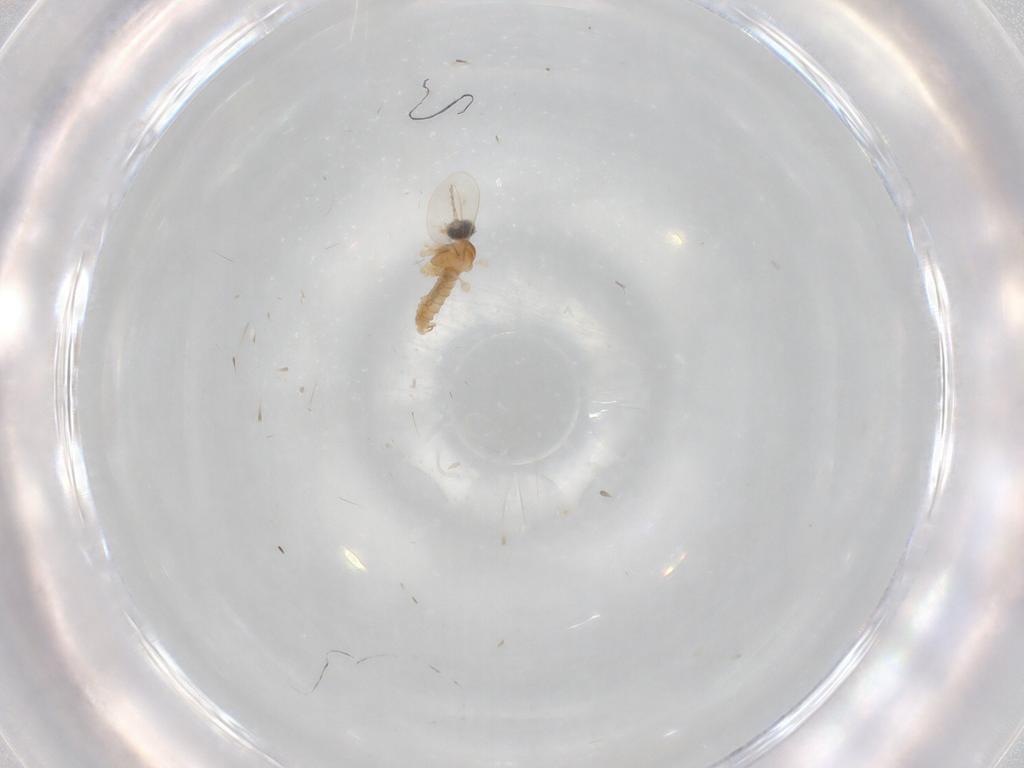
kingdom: Animalia
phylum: Arthropoda
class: Insecta
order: Diptera
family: Cecidomyiidae
